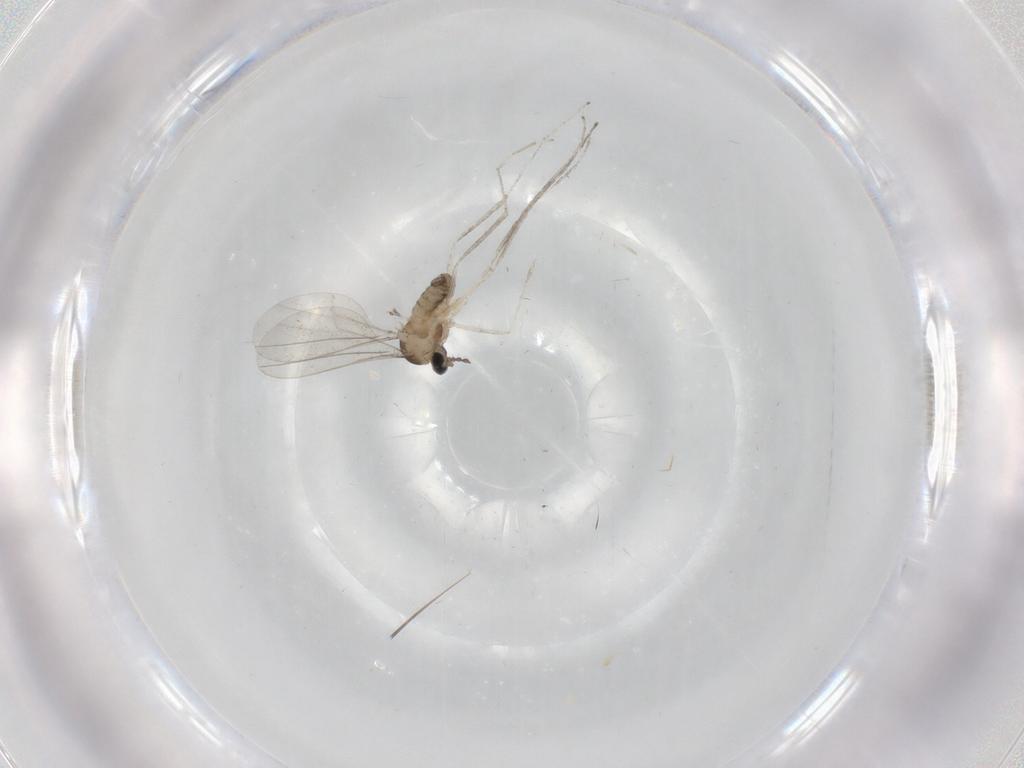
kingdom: Animalia
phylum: Arthropoda
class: Insecta
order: Diptera
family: Cecidomyiidae
